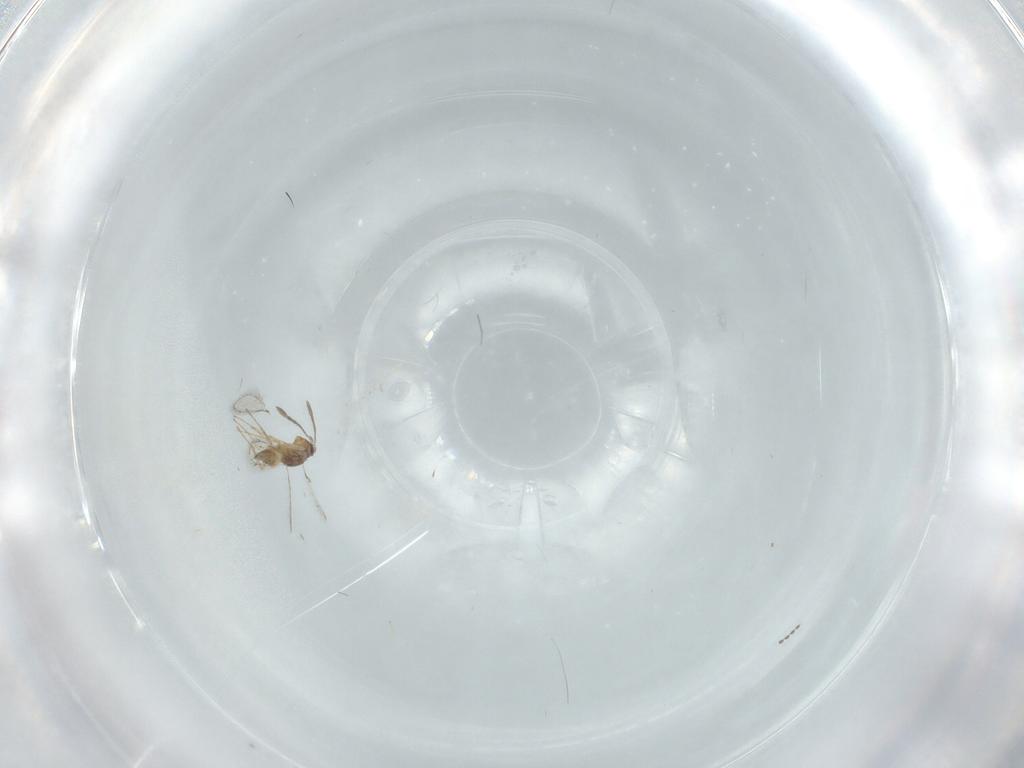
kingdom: Animalia
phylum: Arthropoda
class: Insecta
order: Hymenoptera
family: Mymaridae
